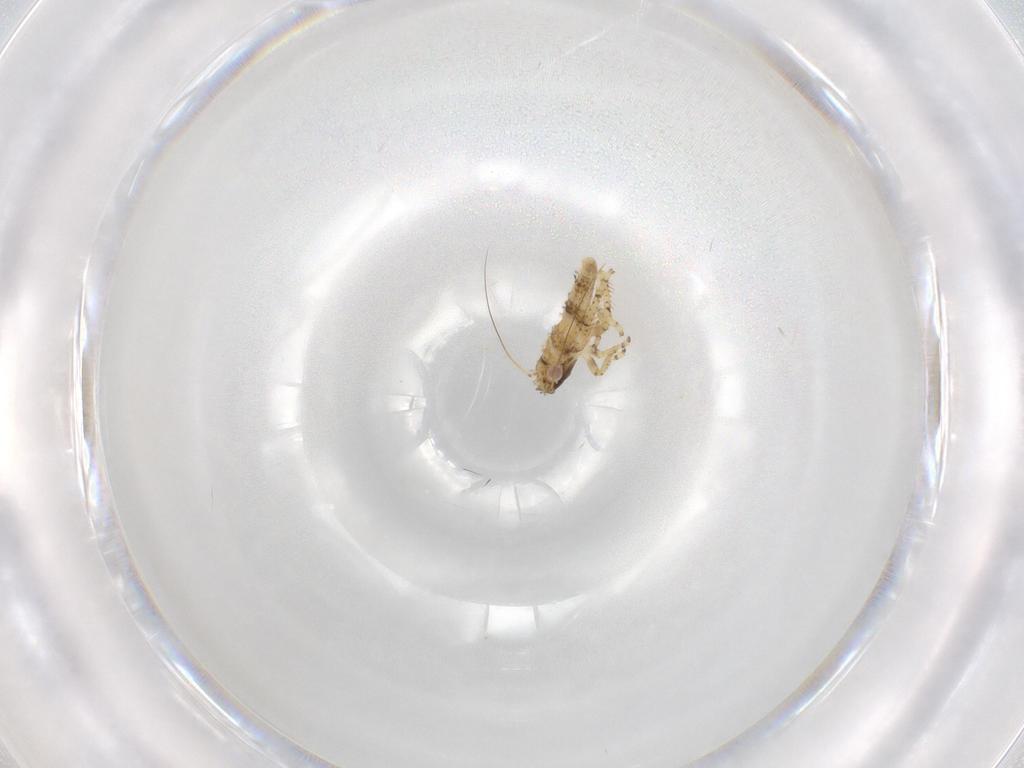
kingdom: Animalia
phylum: Arthropoda
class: Insecta
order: Hemiptera
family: Cicadellidae
